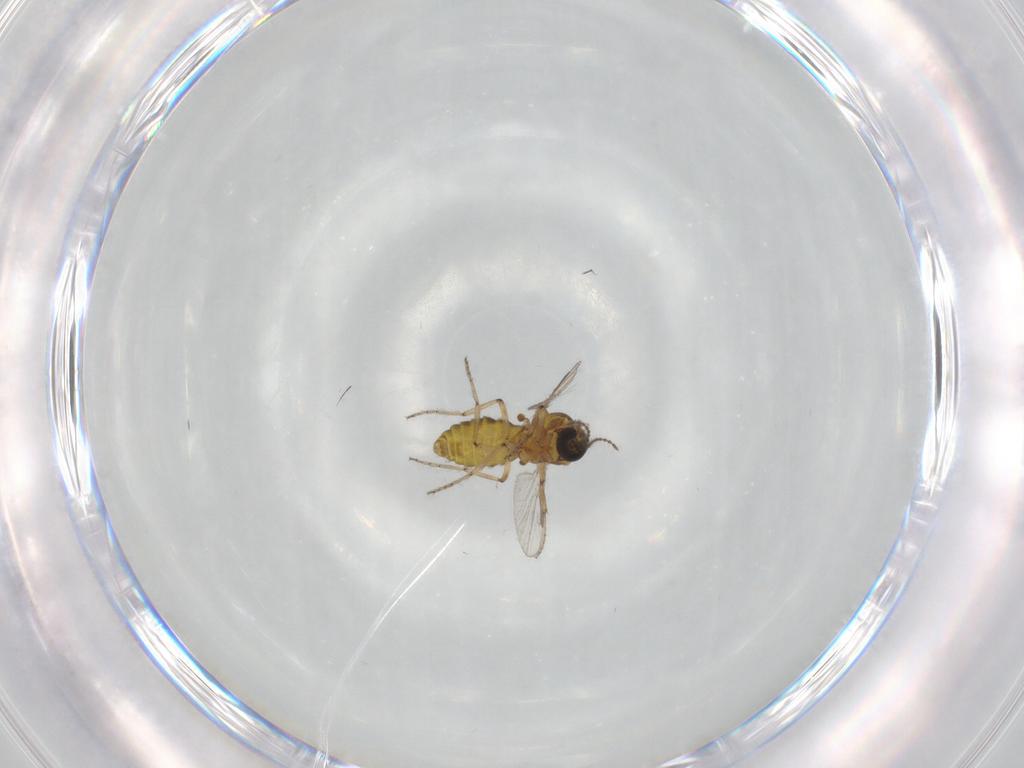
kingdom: Animalia
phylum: Arthropoda
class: Insecta
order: Diptera
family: Ceratopogonidae
